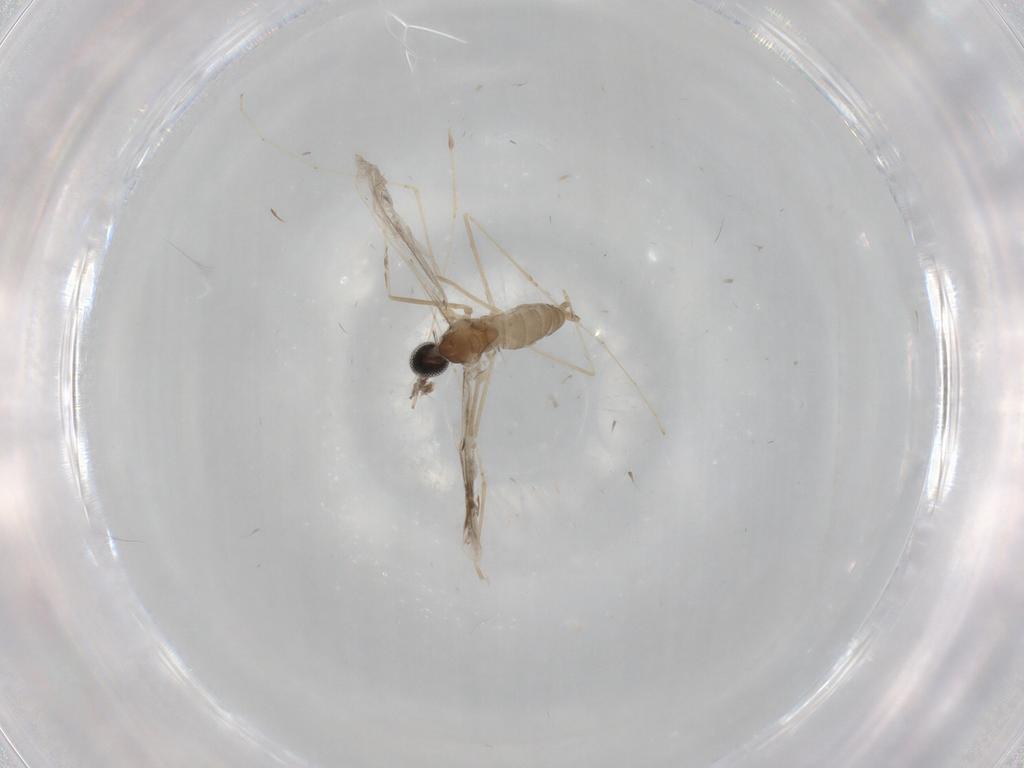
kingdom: Animalia
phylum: Arthropoda
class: Insecta
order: Diptera
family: Cecidomyiidae
